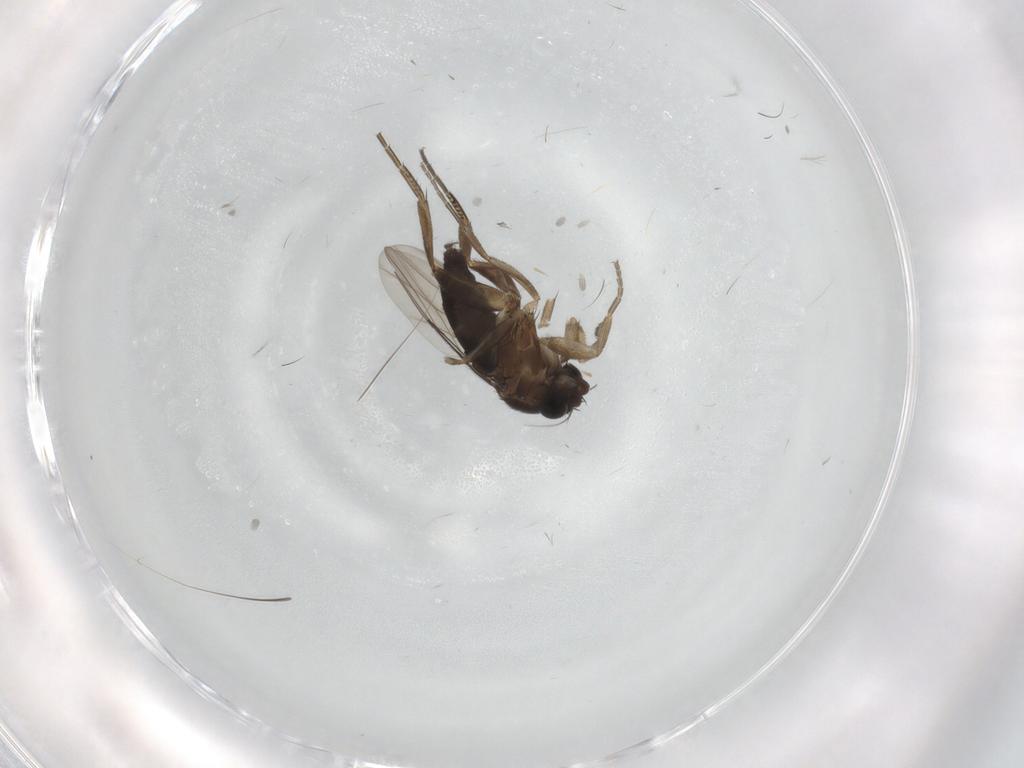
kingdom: Animalia
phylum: Arthropoda
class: Insecta
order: Diptera
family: Phoridae
